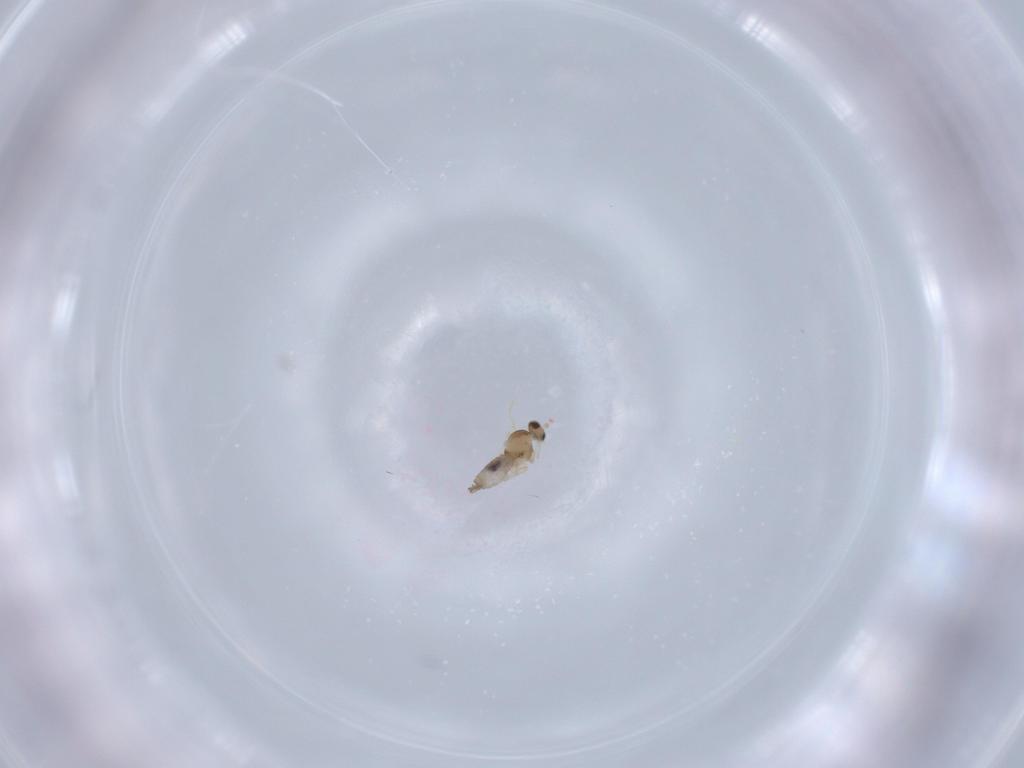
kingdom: Animalia
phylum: Arthropoda
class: Insecta
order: Diptera
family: Cecidomyiidae
